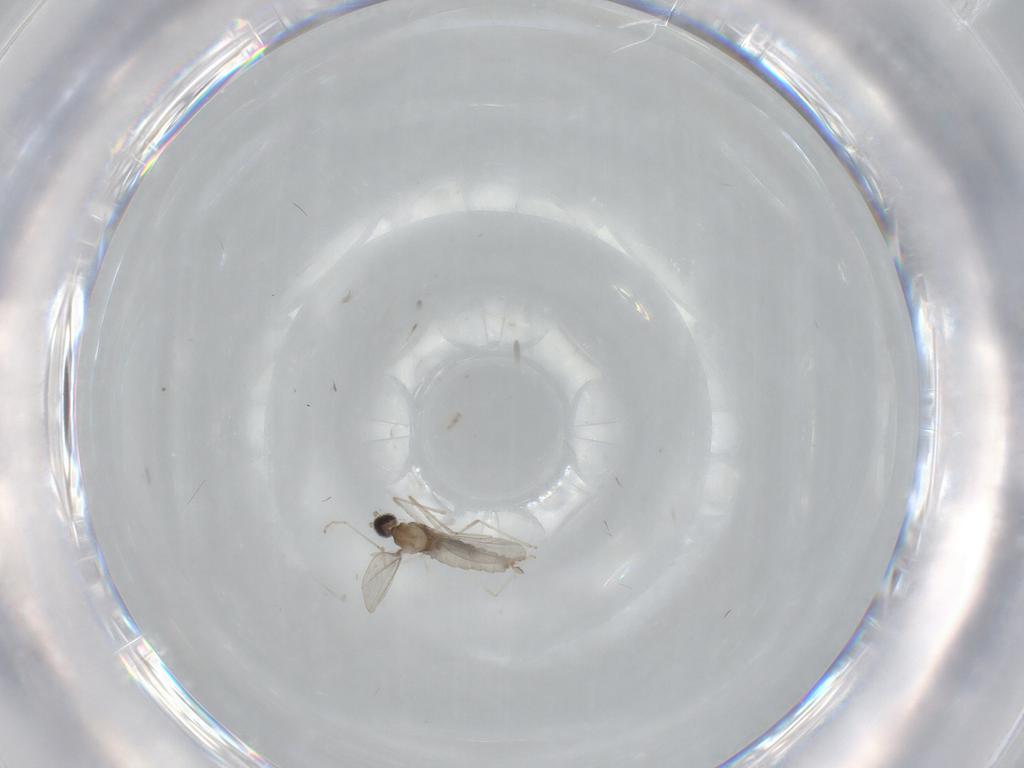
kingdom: Animalia
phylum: Arthropoda
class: Insecta
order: Diptera
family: Cecidomyiidae
